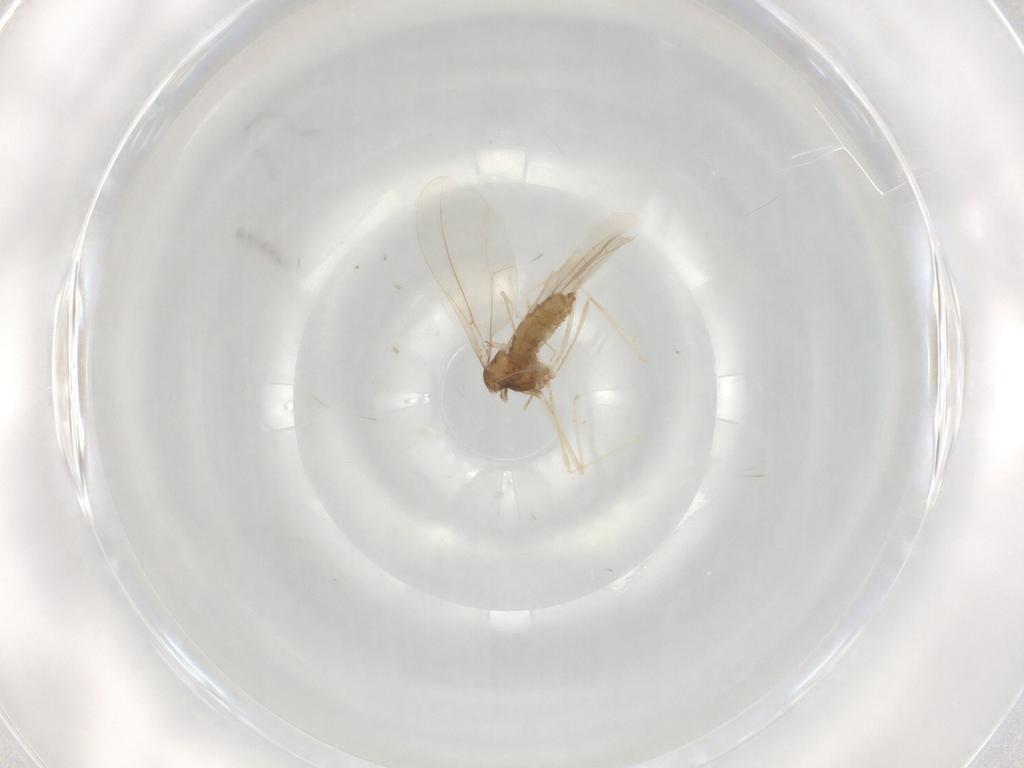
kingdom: Animalia
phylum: Arthropoda
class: Insecta
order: Diptera
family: Cecidomyiidae
